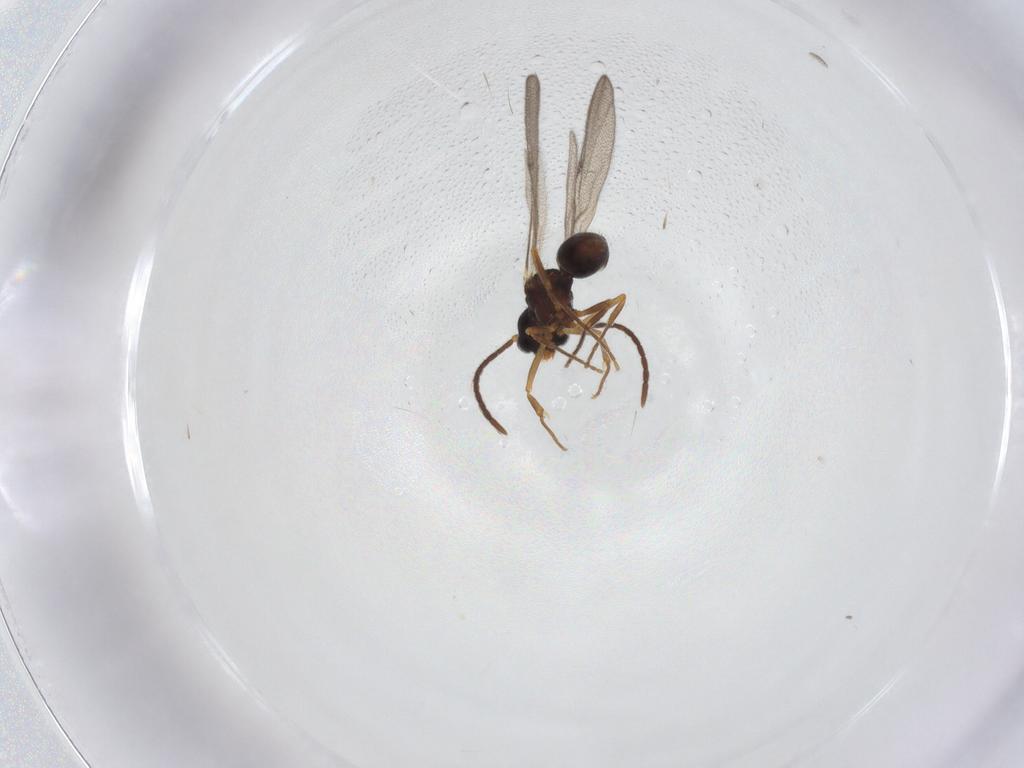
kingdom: Animalia
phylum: Arthropoda
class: Insecta
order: Hymenoptera
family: Formicidae
